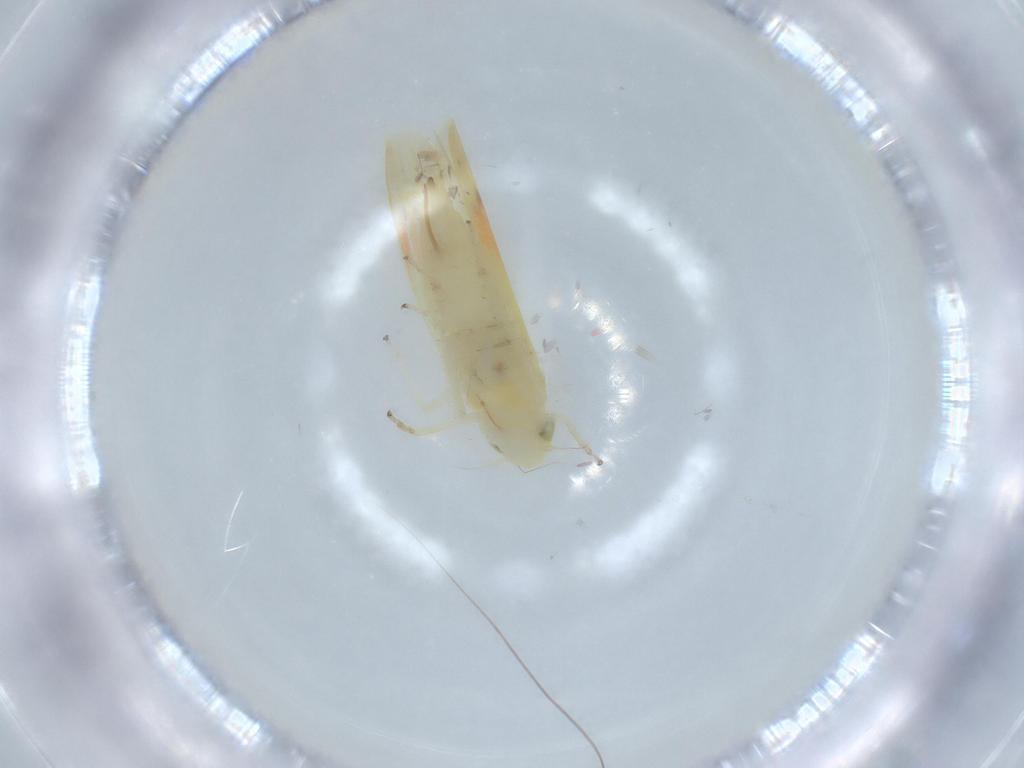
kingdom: Animalia
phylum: Arthropoda
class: Insecta
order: Hemiptera
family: Cicadellidae
